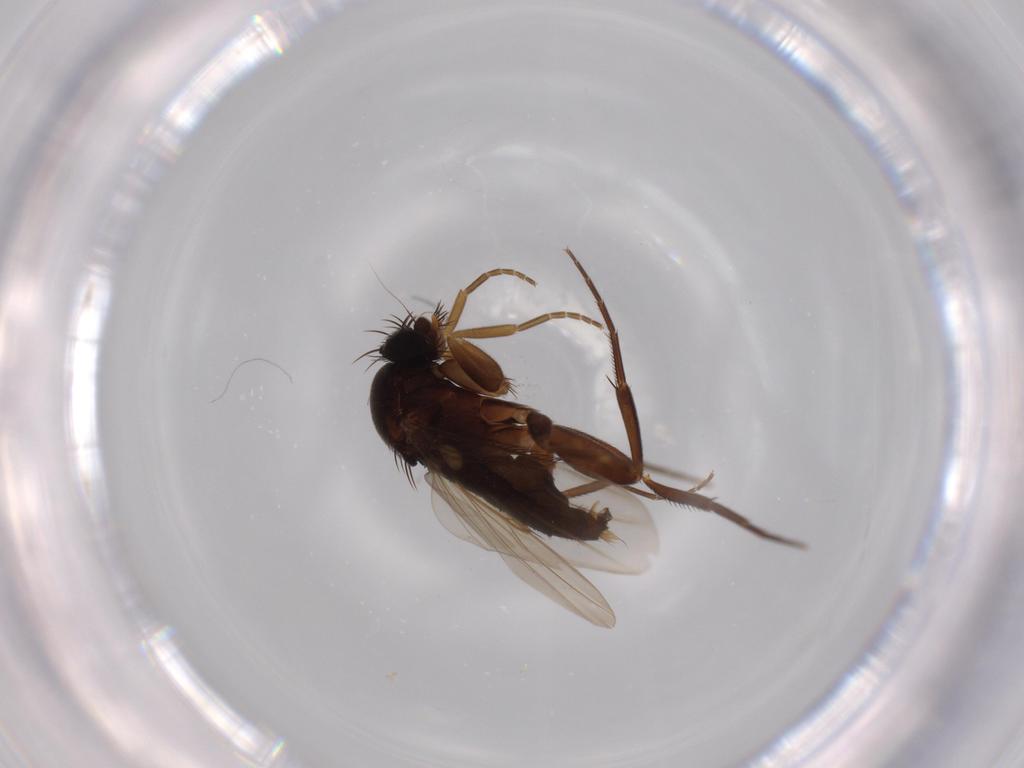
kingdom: Animalia
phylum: Arthropoda
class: Insecta
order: Diptera
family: Phoridae
